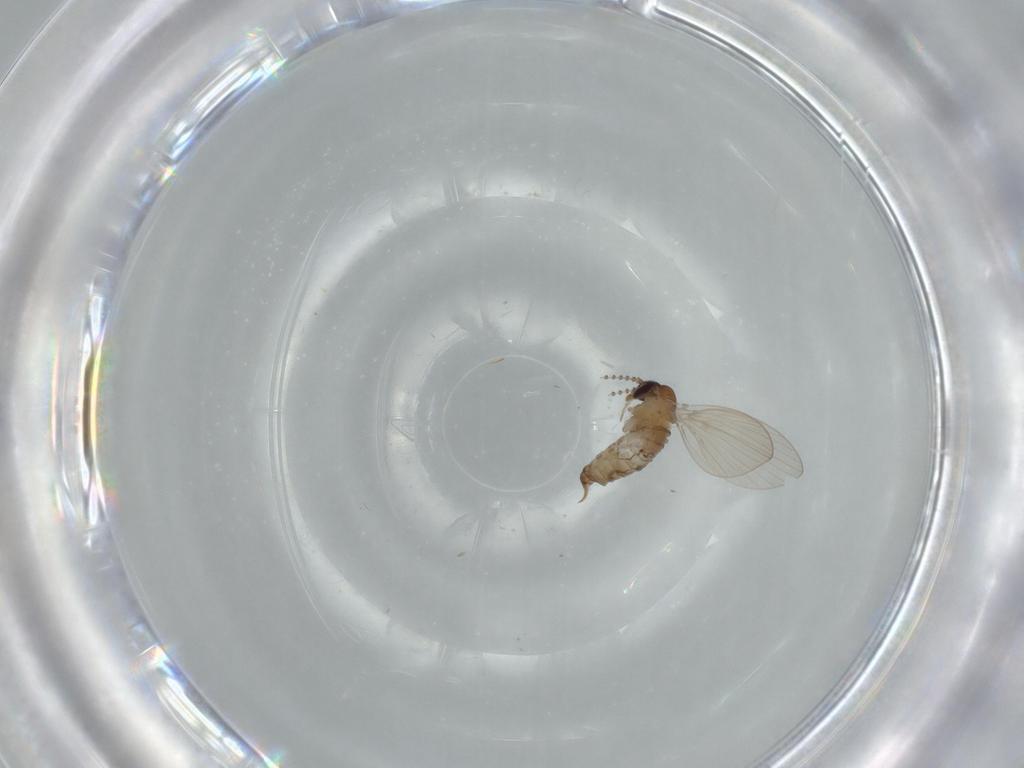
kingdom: Animalia
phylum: Arthropoda
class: Insecta
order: Diptera
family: Psychodidae
